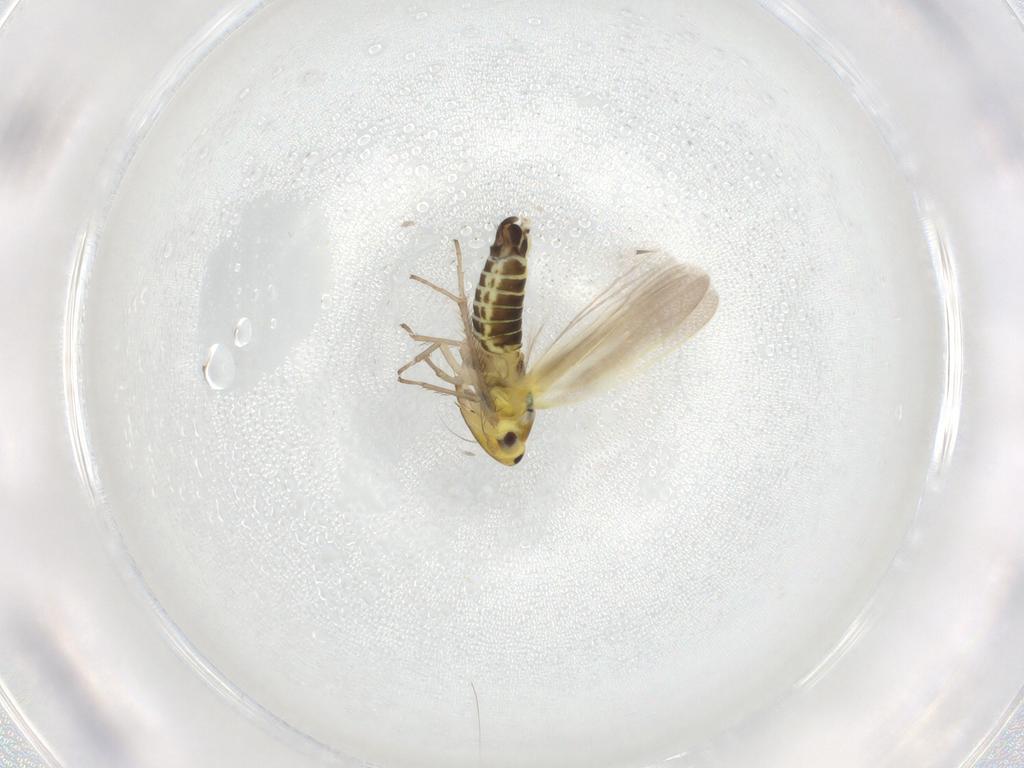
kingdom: Animalia
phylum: Arthropoda
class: Insecta
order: Hemiptera
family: Cicadellidae
